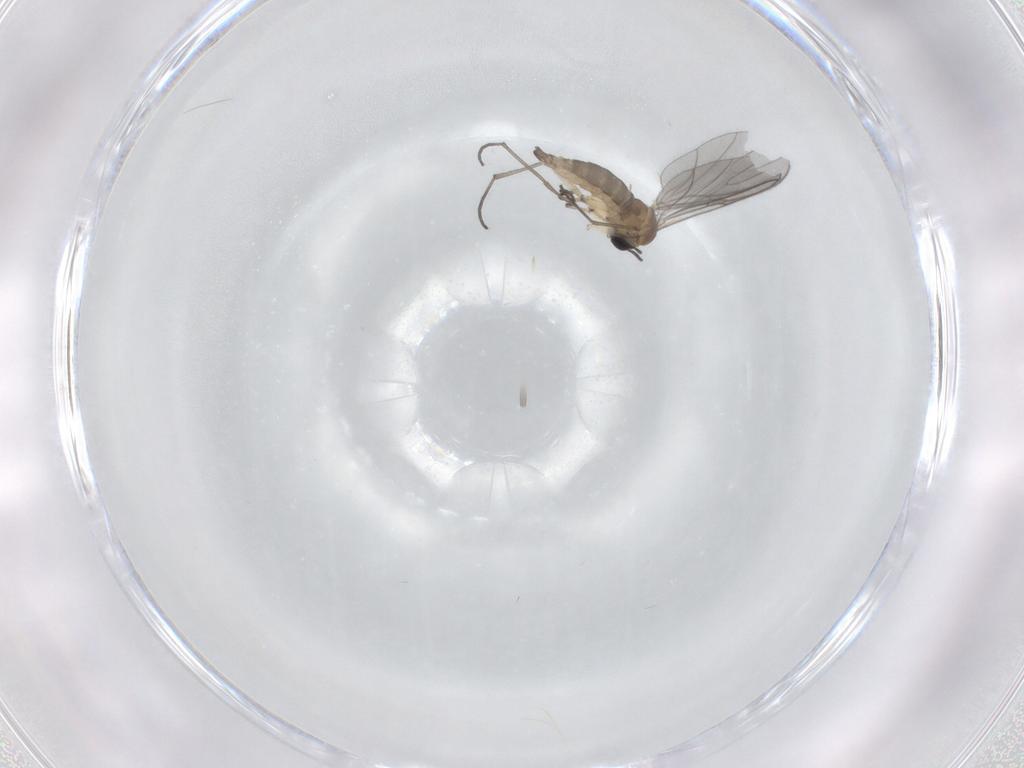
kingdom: Animalia
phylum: Arthropoda
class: Insecta
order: Diptera
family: Sciaridae
